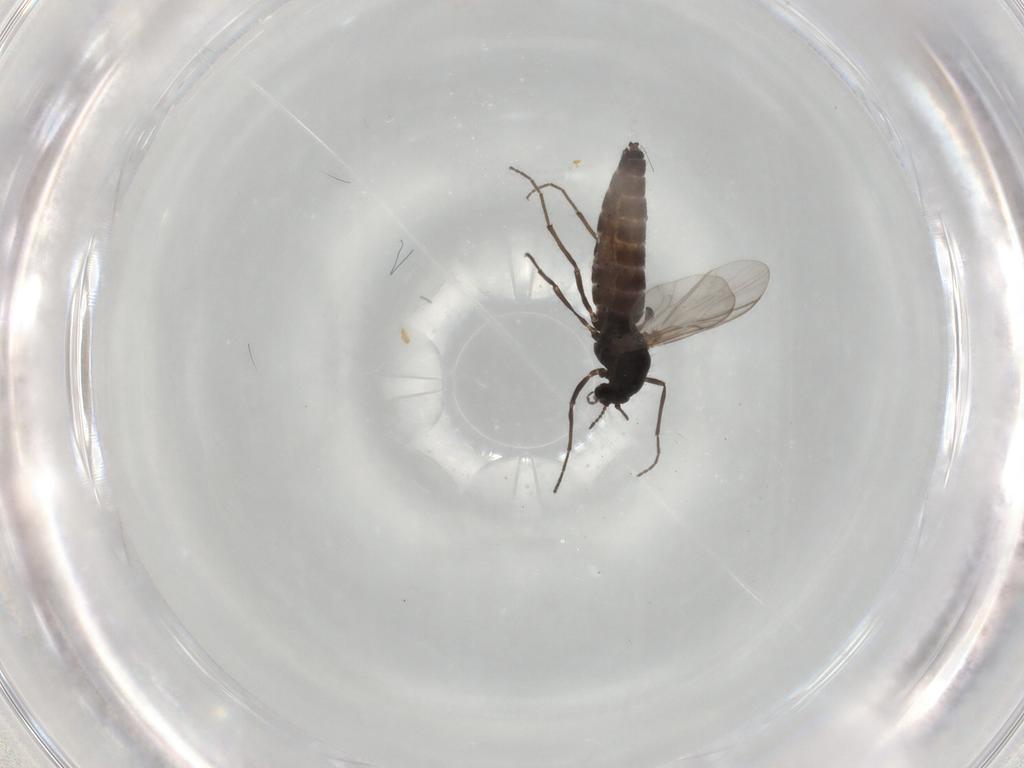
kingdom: Animalia
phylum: Arthropoda
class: Insecta
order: Diptera
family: Chironomidae
